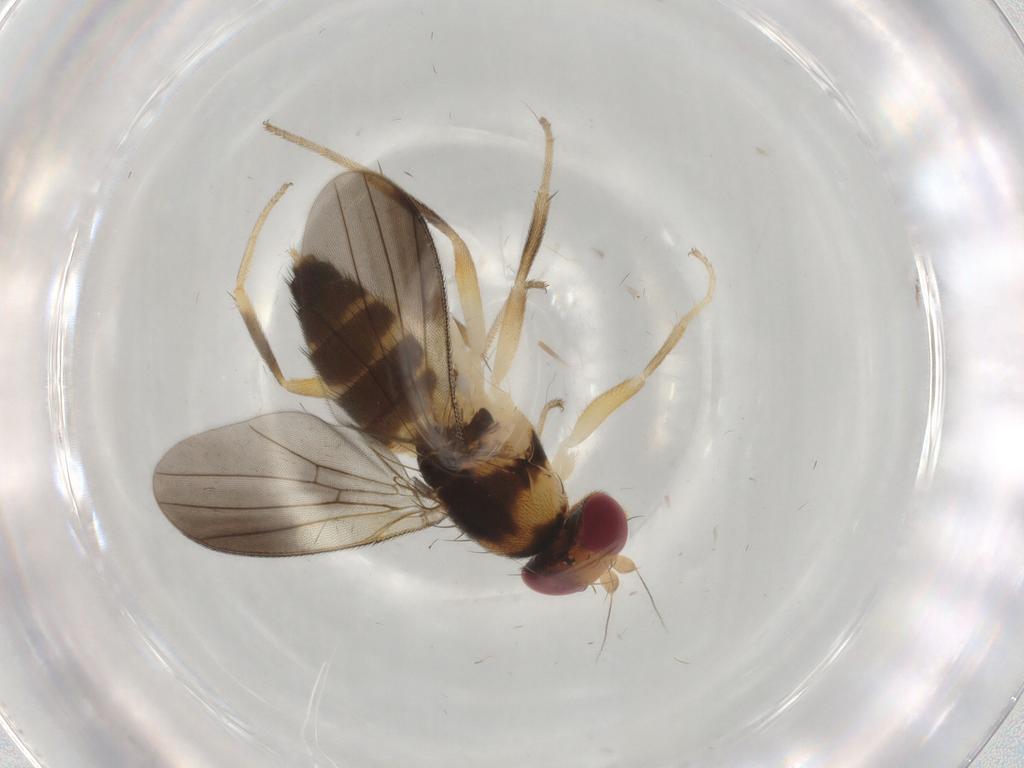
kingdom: Animalia
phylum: Arthropoda
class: Insecta
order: Diptera
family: Clusiidae
